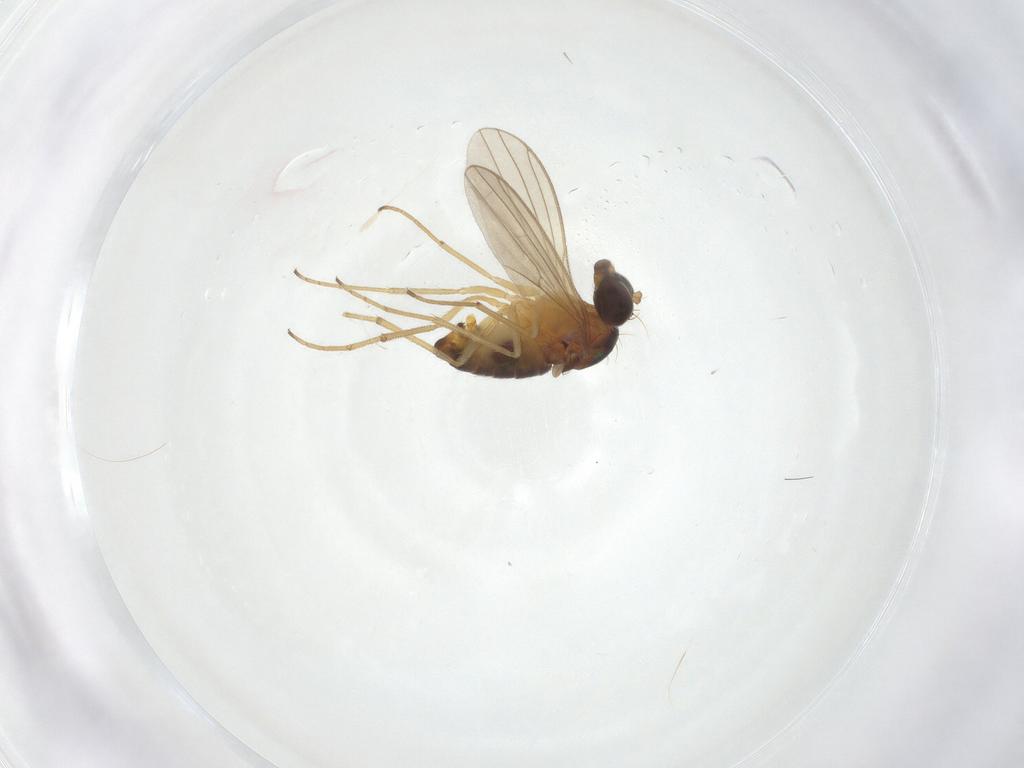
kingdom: Animalia
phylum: Arthropoda
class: Insecta
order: Diptera
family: Dolichopodidae
